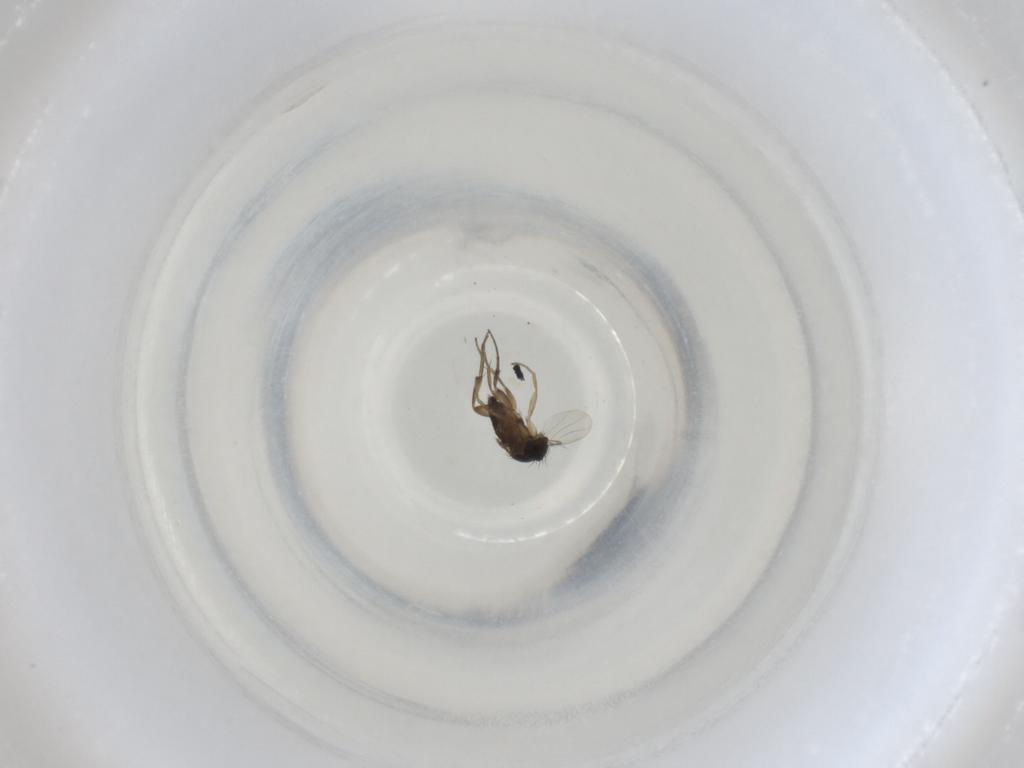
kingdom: Animalia
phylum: Arthropoda
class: Insecta
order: Diptera
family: Phoridae
